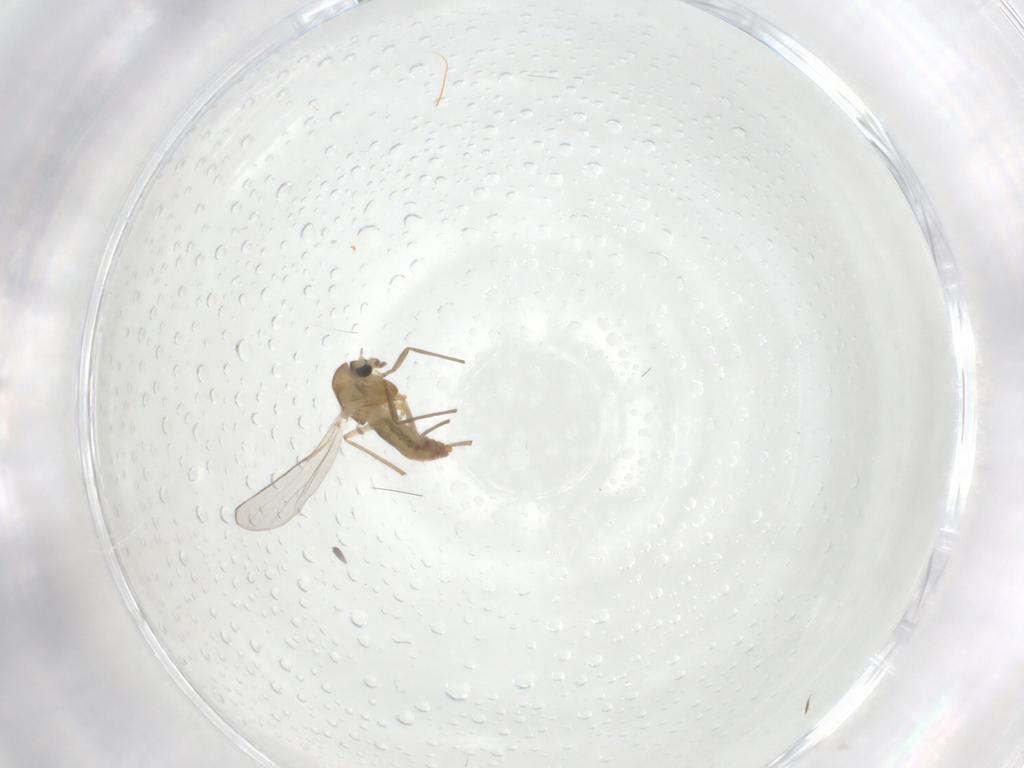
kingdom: Animalia
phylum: Arthropoda
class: Insecta
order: Diptera
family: Chironomidae
